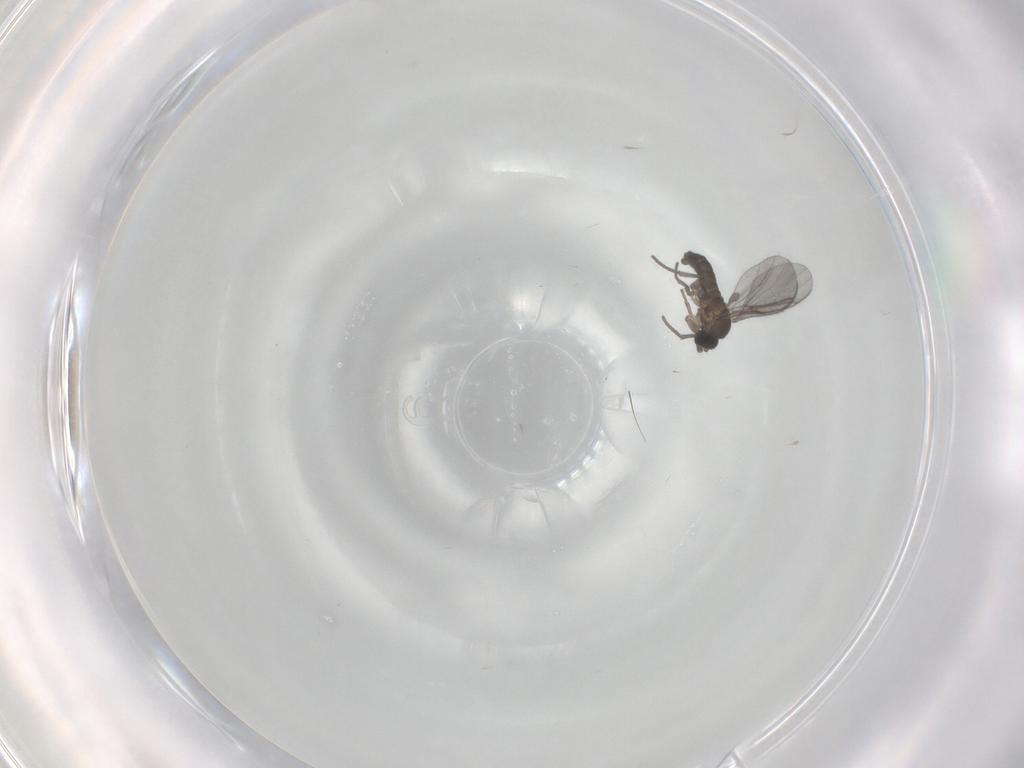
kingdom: Animalia
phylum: Arthropoda
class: Insecta
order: Diptera
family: Sciaridae
